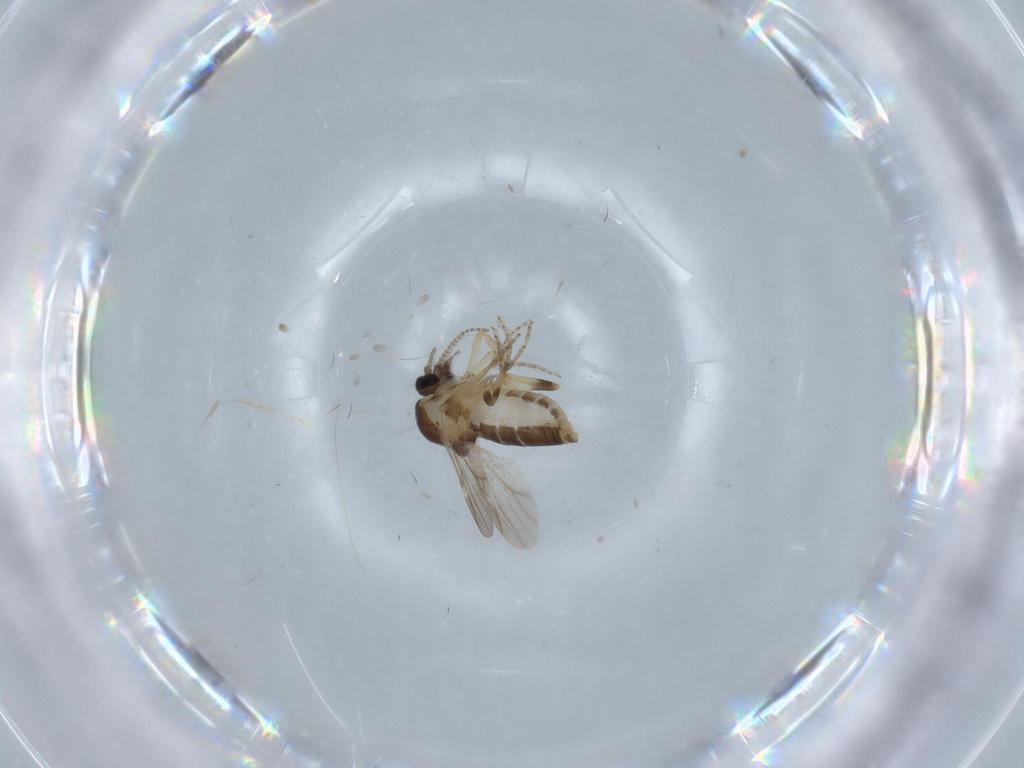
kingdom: Animalia
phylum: Arthropoda
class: Insecta
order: Diptera
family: Ceratopogonidae
